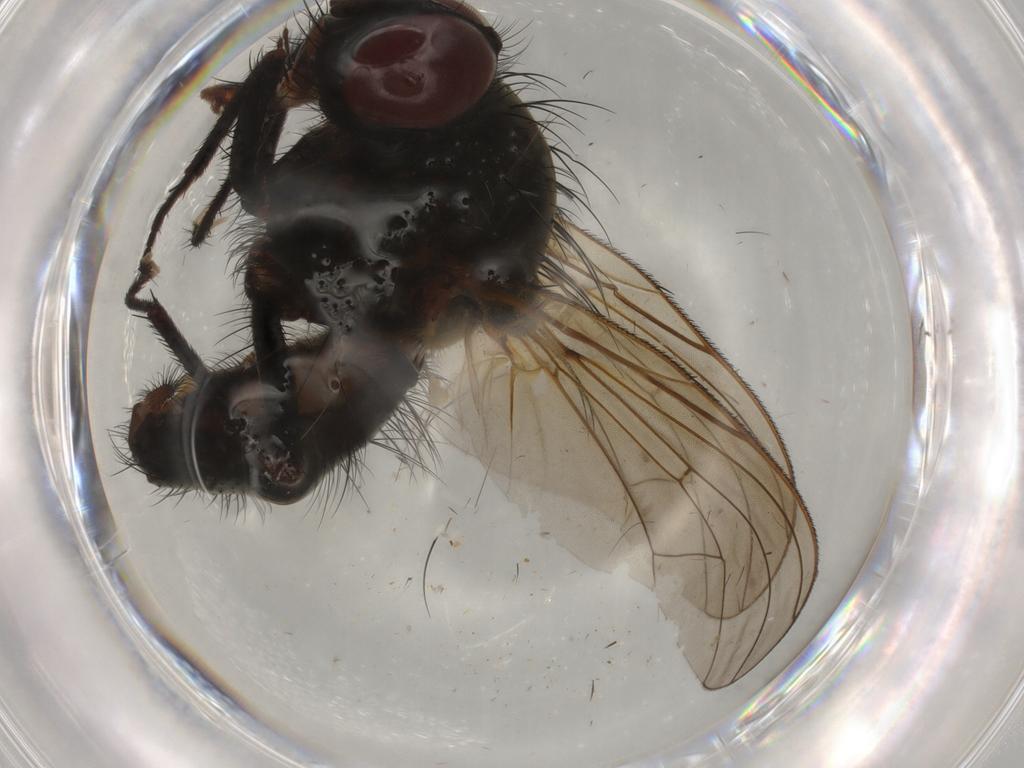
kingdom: Animalia
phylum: Arthropoda
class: Insecta
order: Diptera
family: Anthomyiidae
